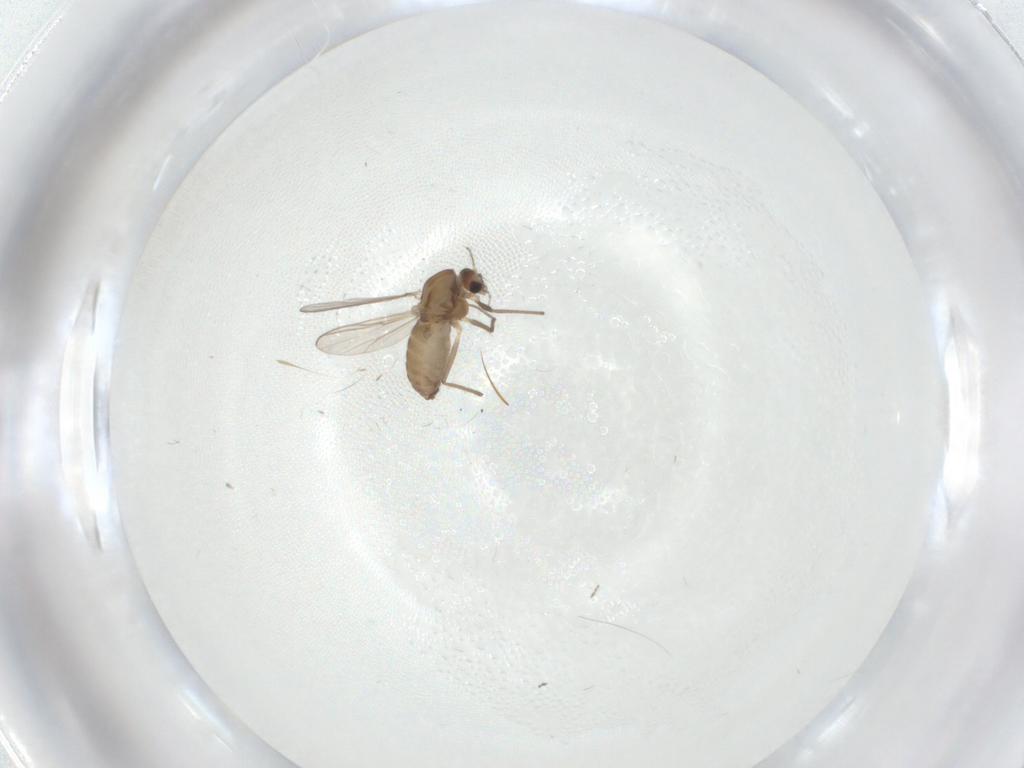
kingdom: Animalia
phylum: Arthropoda
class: Insecta
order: Diptera
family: Chironomidae
